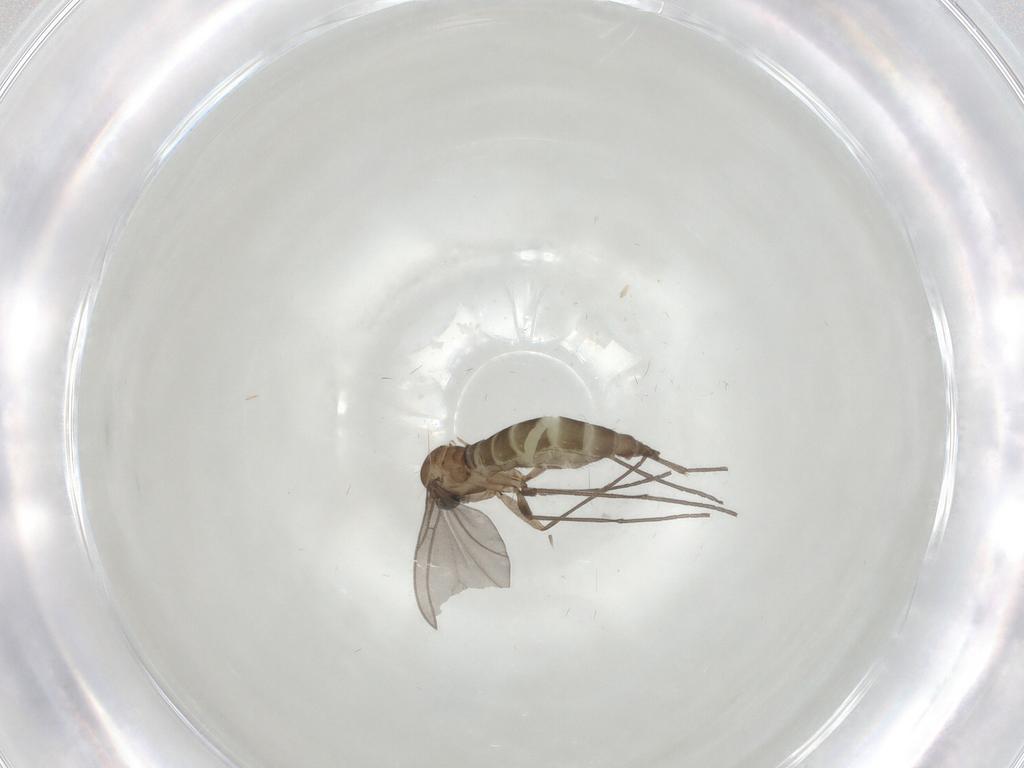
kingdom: Animalia
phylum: Arthropoda
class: Insecta
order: Diptera
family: Sciaridae
